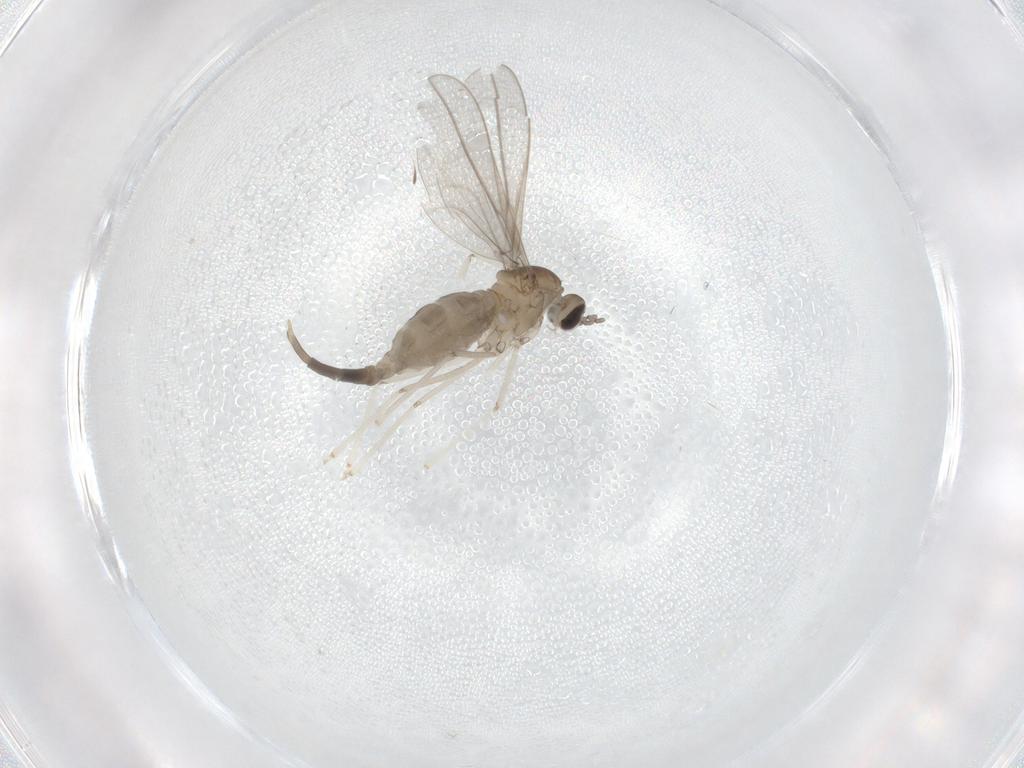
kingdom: Animalia
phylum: Arthropoda
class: Insecta
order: Diptera
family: Cecidomyiidae
